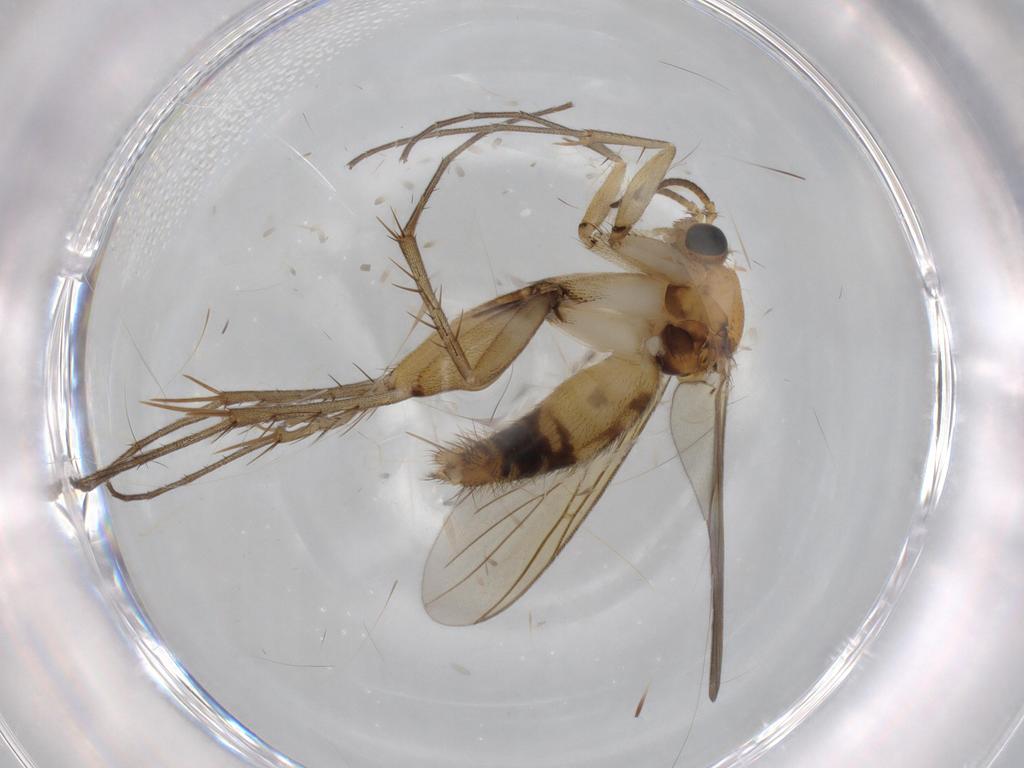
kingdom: Animalia
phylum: Arthropoda
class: Insecta
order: Diptera
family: Mycetophilidae
